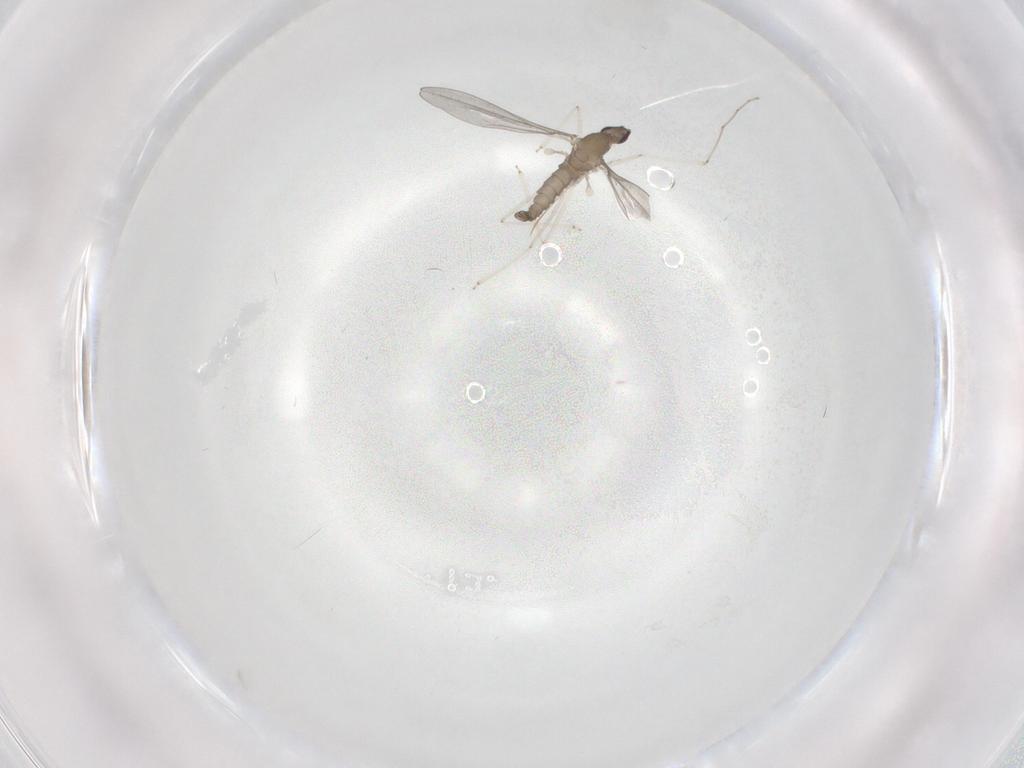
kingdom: Animalia
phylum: Arthropoda
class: Insecta
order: Diptera
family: Cecidomyiidae
